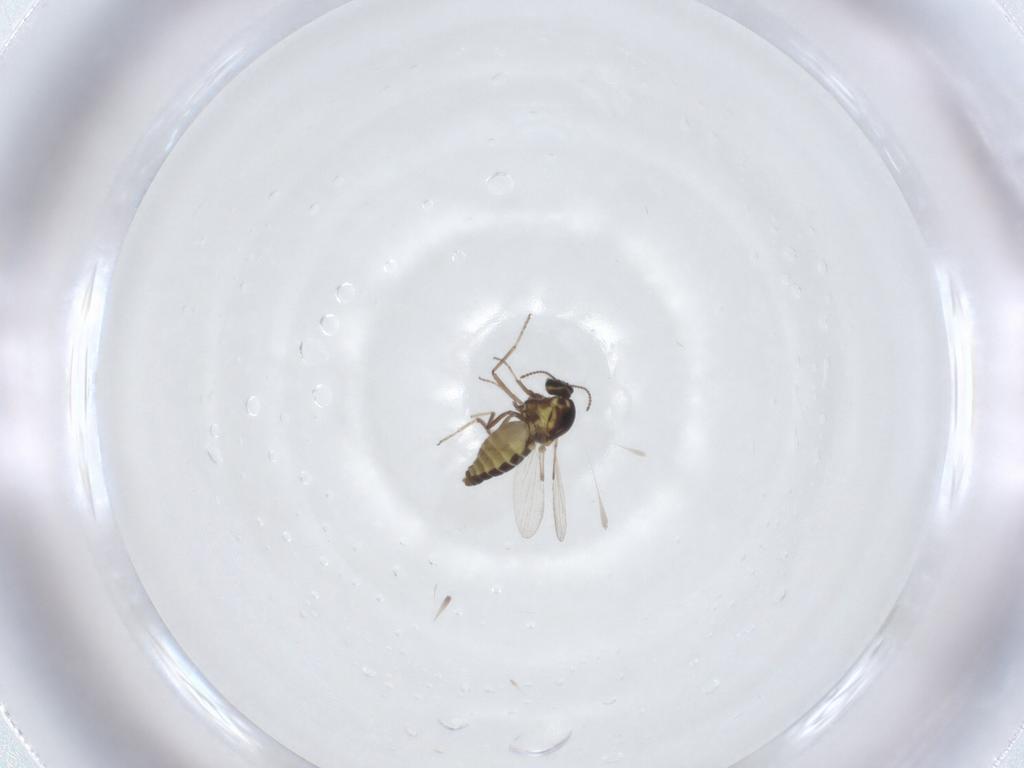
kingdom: Animalia
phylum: Arthropoda
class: Insecta
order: Diptera
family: Ceratopogonidae
